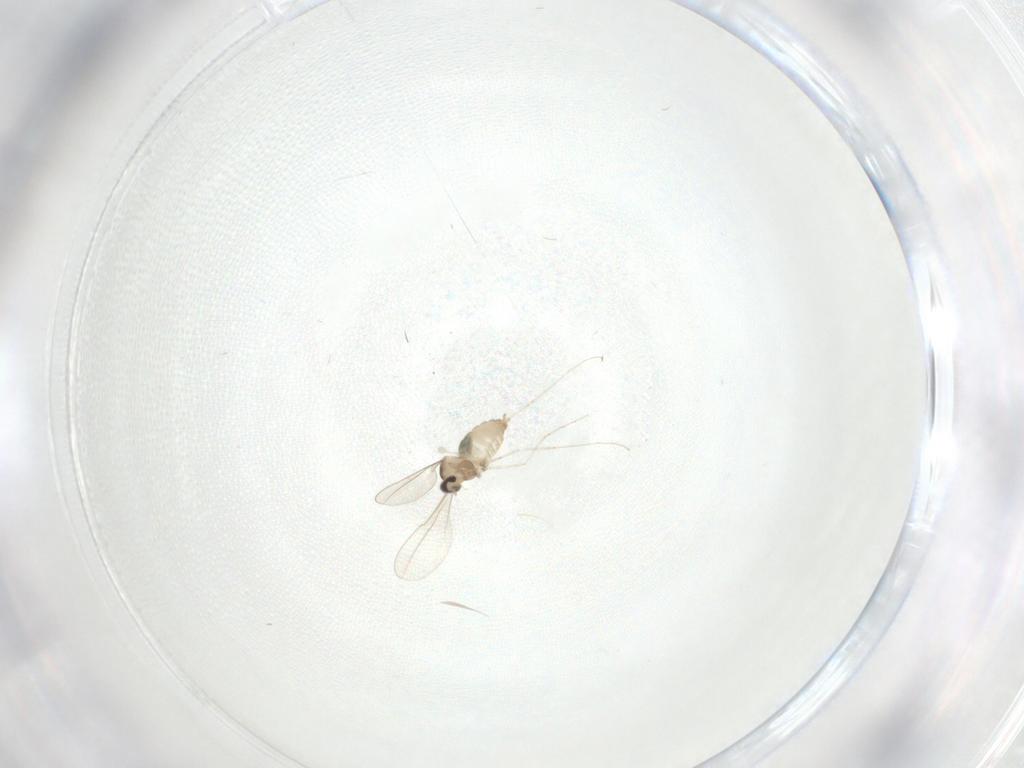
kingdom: Animalia
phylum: Arthropoda
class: Insecta
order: Diptera
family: Cecidomyiidae
